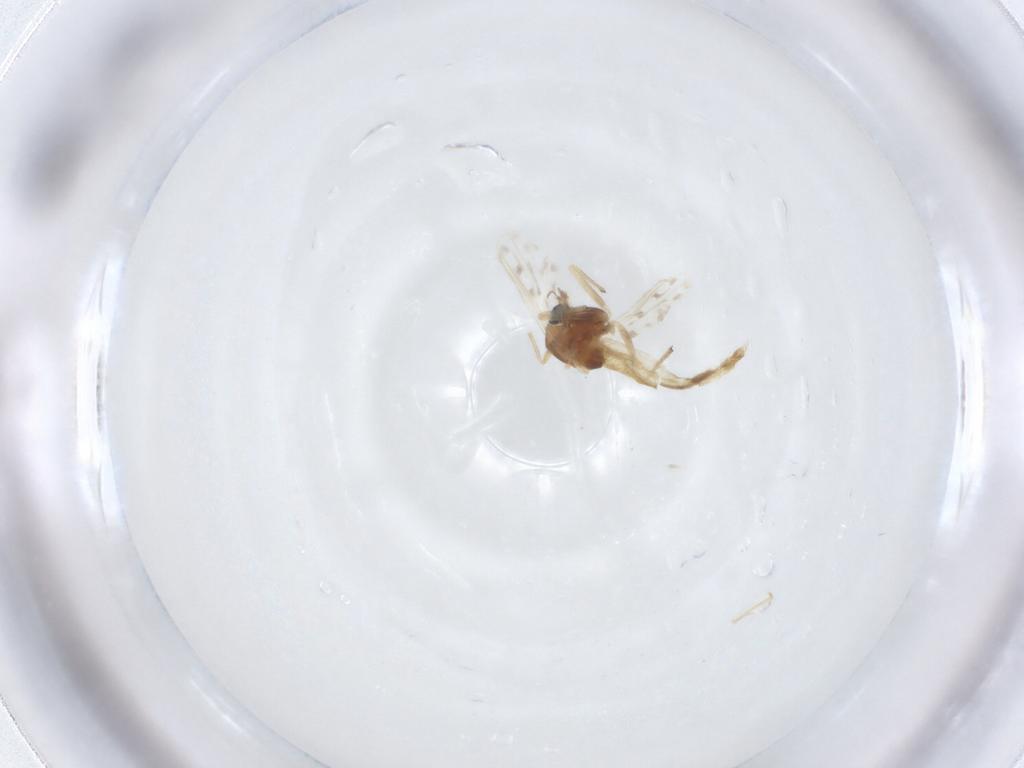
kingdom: Animalia
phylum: Arthropoda
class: Insecta
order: Diptera
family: Chironomidae
